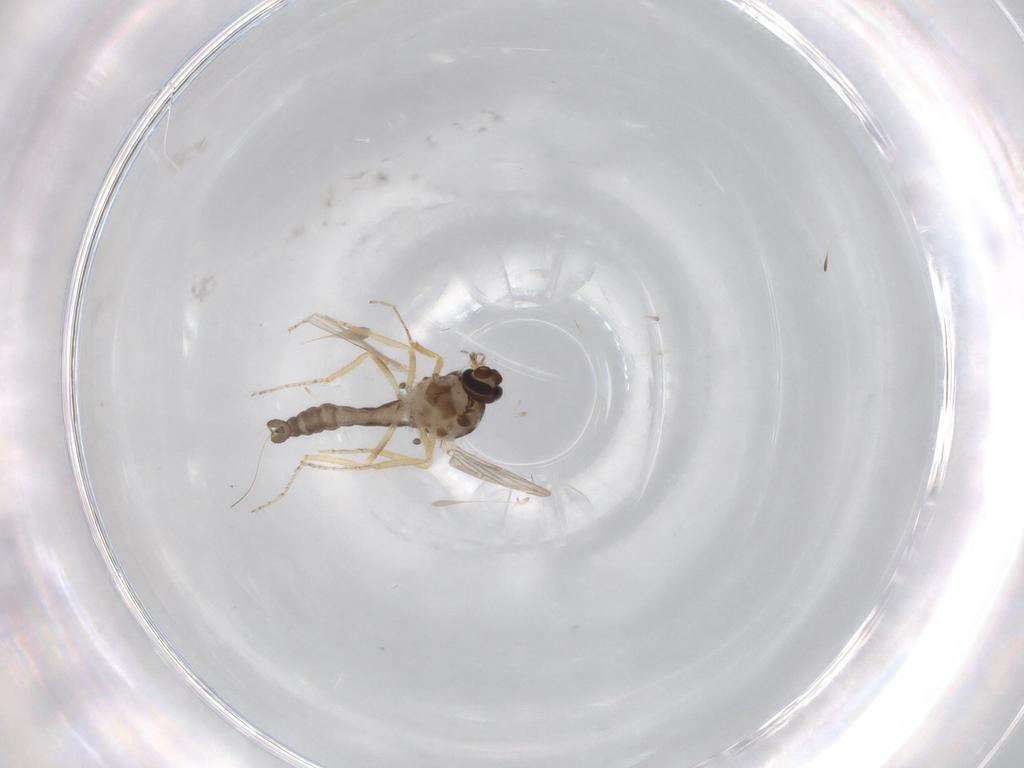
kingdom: Animalia
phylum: Arthropoda
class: Insecta
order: Diptera
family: Ceratopogonidae
